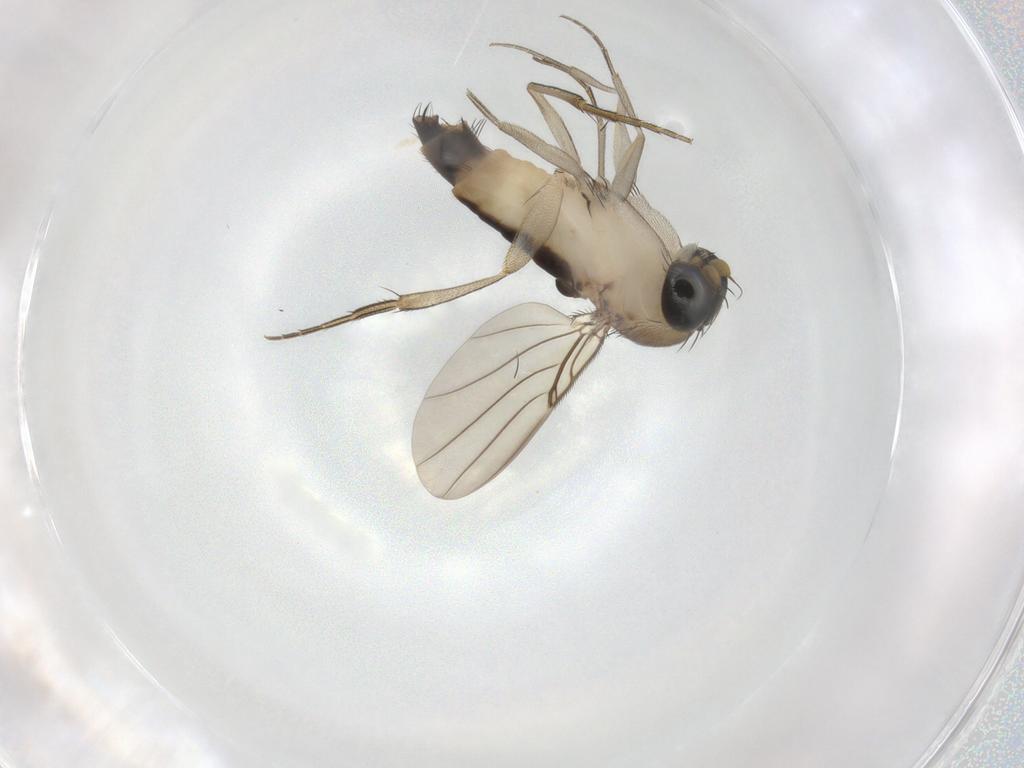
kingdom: Animalia
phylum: Arthropoda
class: Insecta
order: Diptera
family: Phoridae
